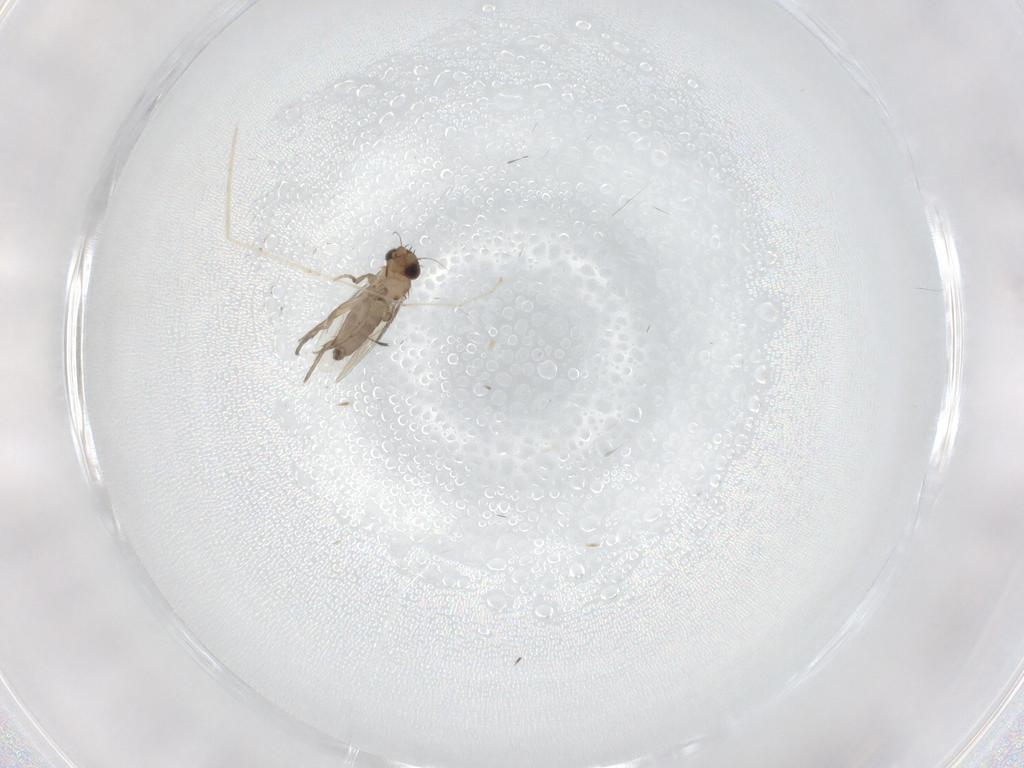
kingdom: Animalia
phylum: Arthropoda
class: Insecta
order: Diptera
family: Phoridae
